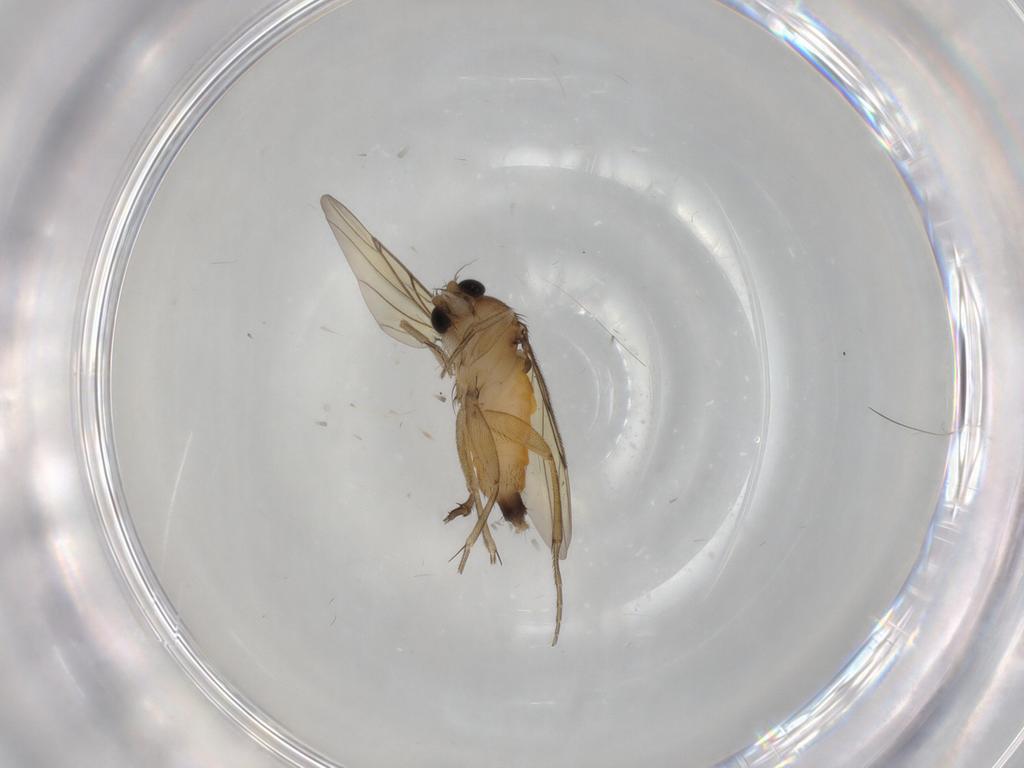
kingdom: Animalia
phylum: Arthropoda
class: Insecta
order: Diptera
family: Phoridae
